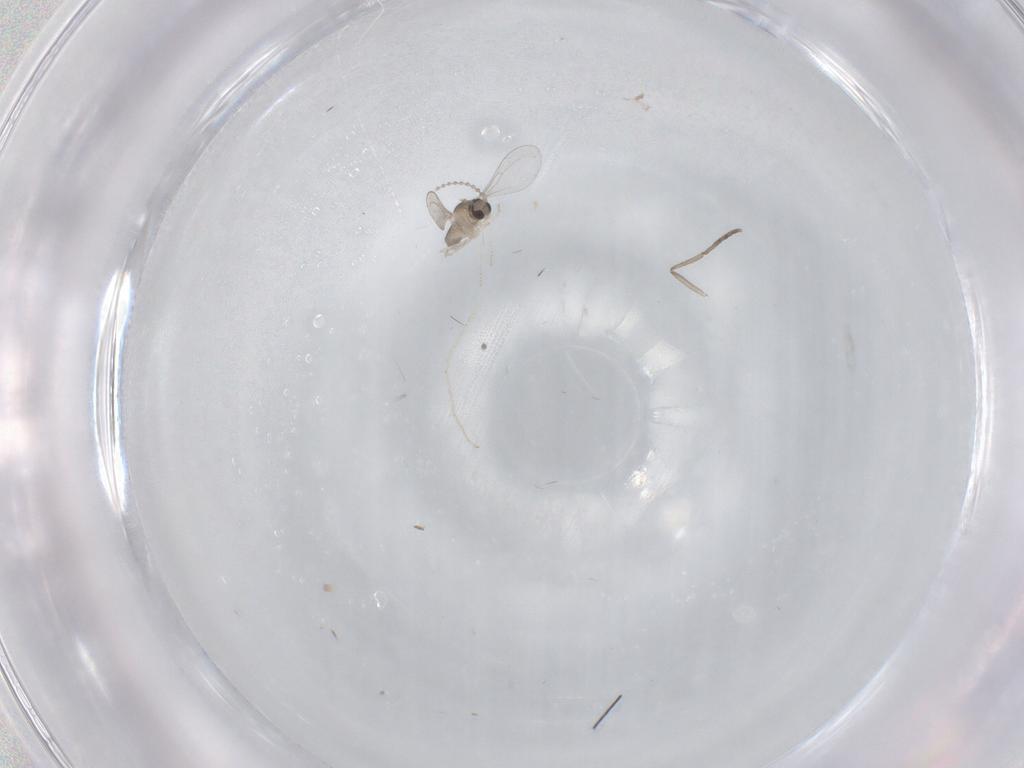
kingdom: Animalia
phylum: Arthropoda
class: Insecta
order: Diptera
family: Cecidomyiidae
